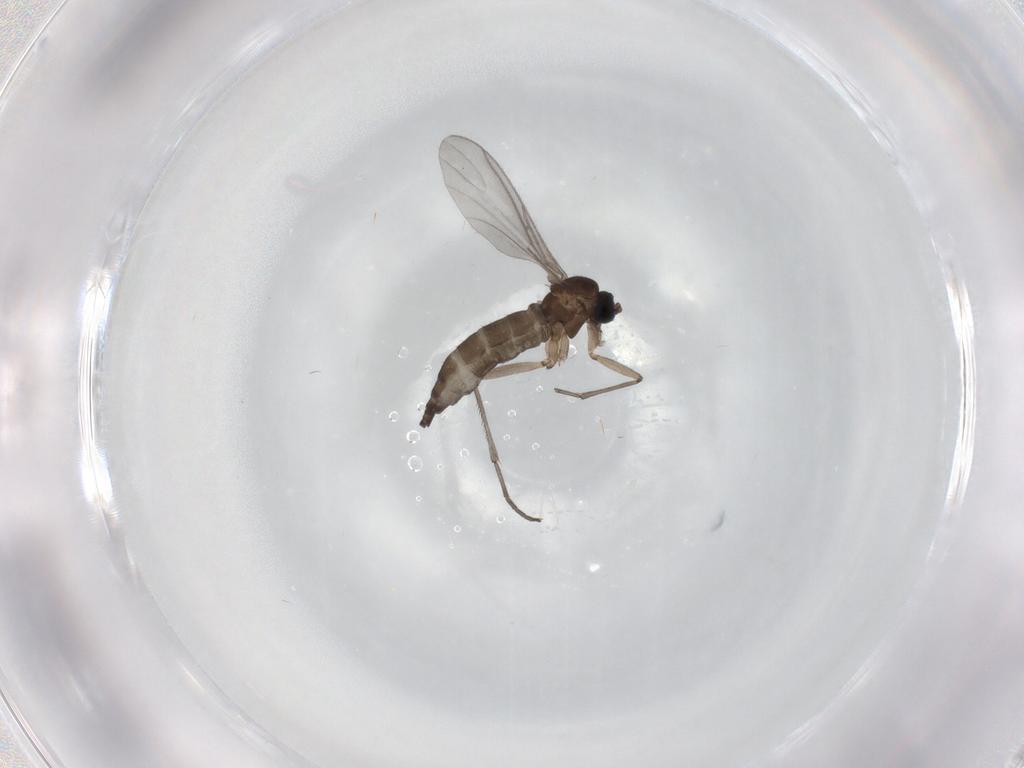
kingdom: Animalia
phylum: Arthropoda
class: Insecta
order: Diptera
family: Sciaridae
